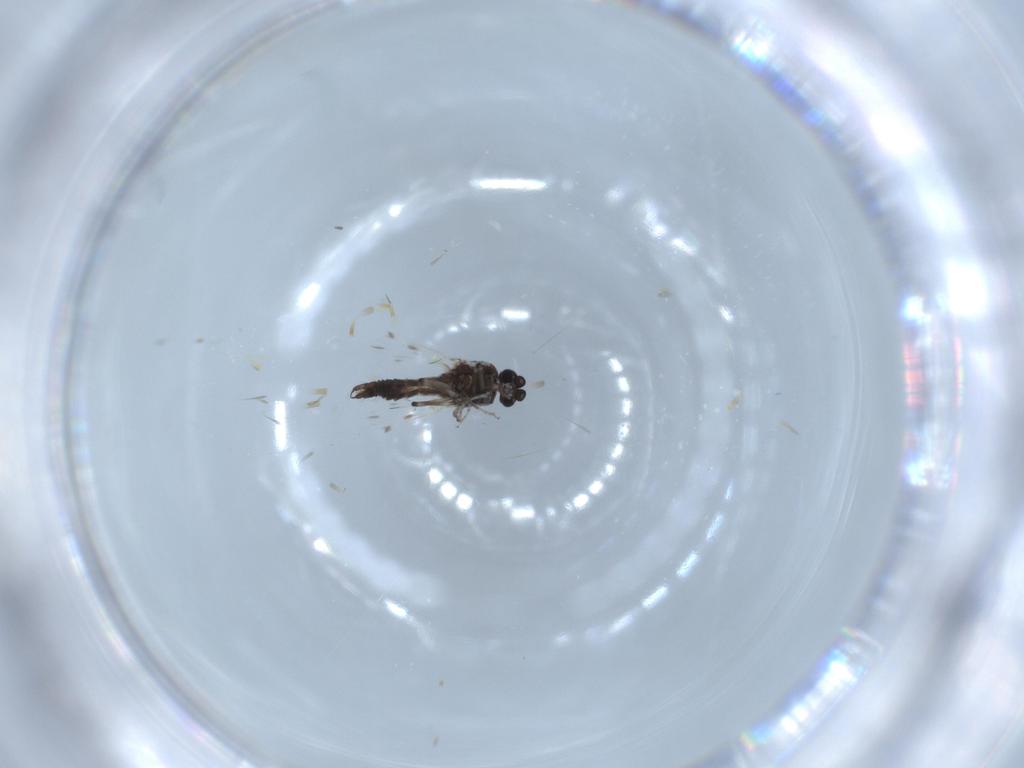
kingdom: Animalia
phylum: Arthropoda
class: Insecta
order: Diptera
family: Ceratopogonidae
